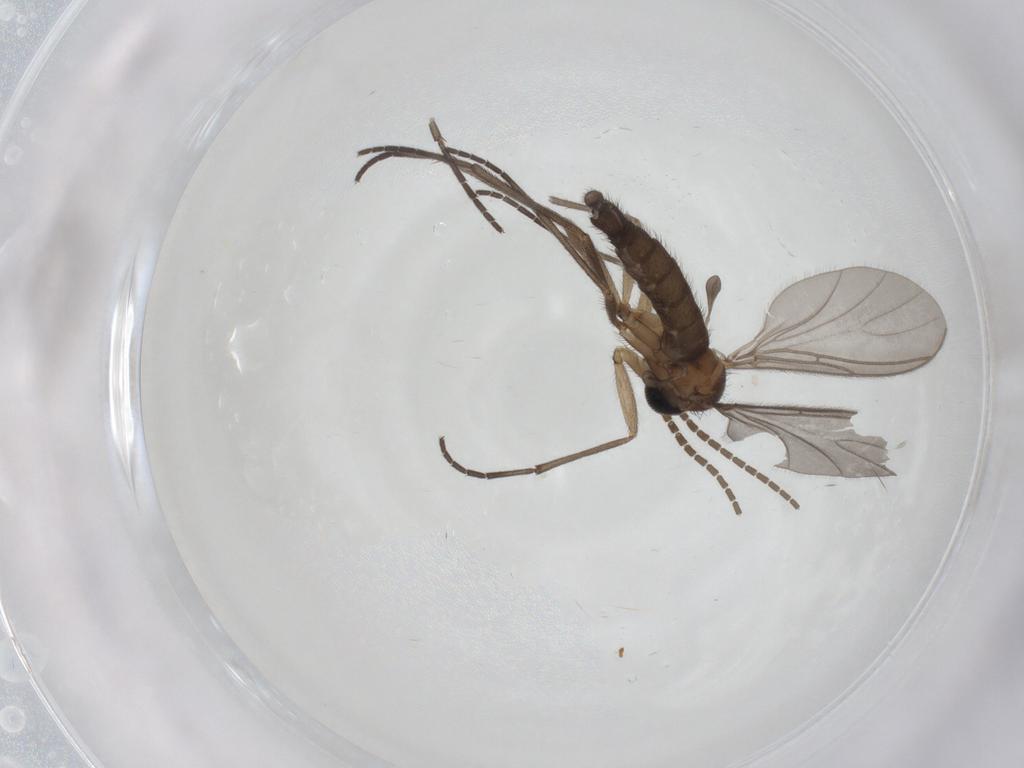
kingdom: Animalia
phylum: Arthropoda
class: Insecta
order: Diptera
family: Sciaridae
